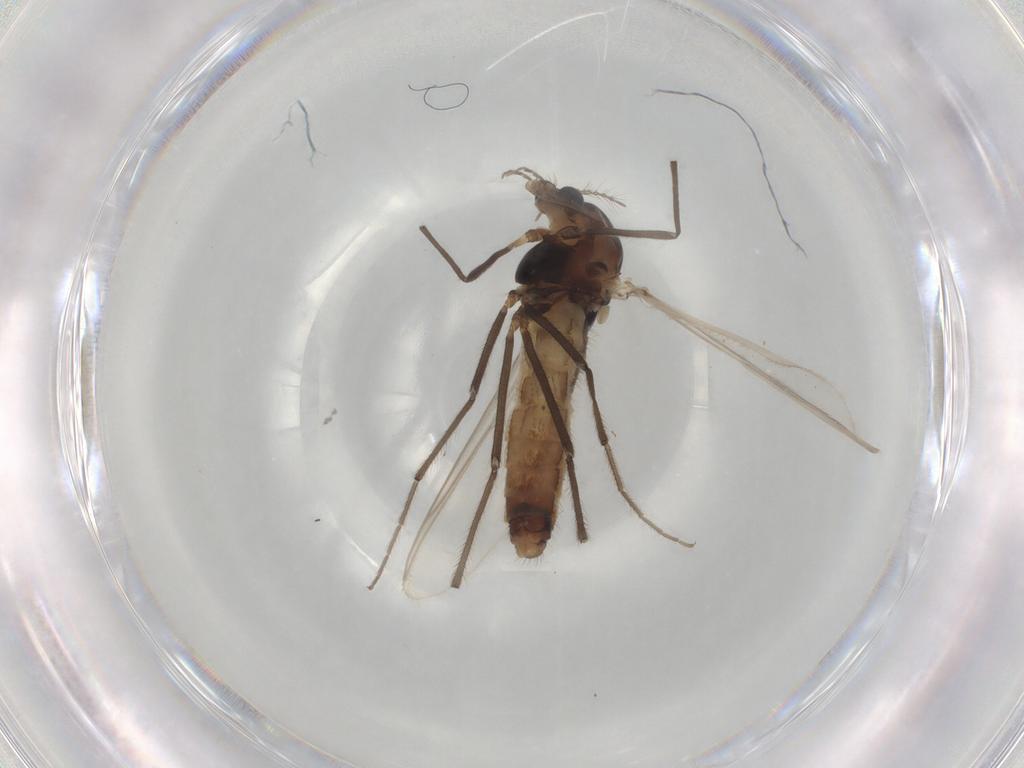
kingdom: Animalia
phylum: Arthropoda
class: Insecta
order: Diptera
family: Chironomidae
